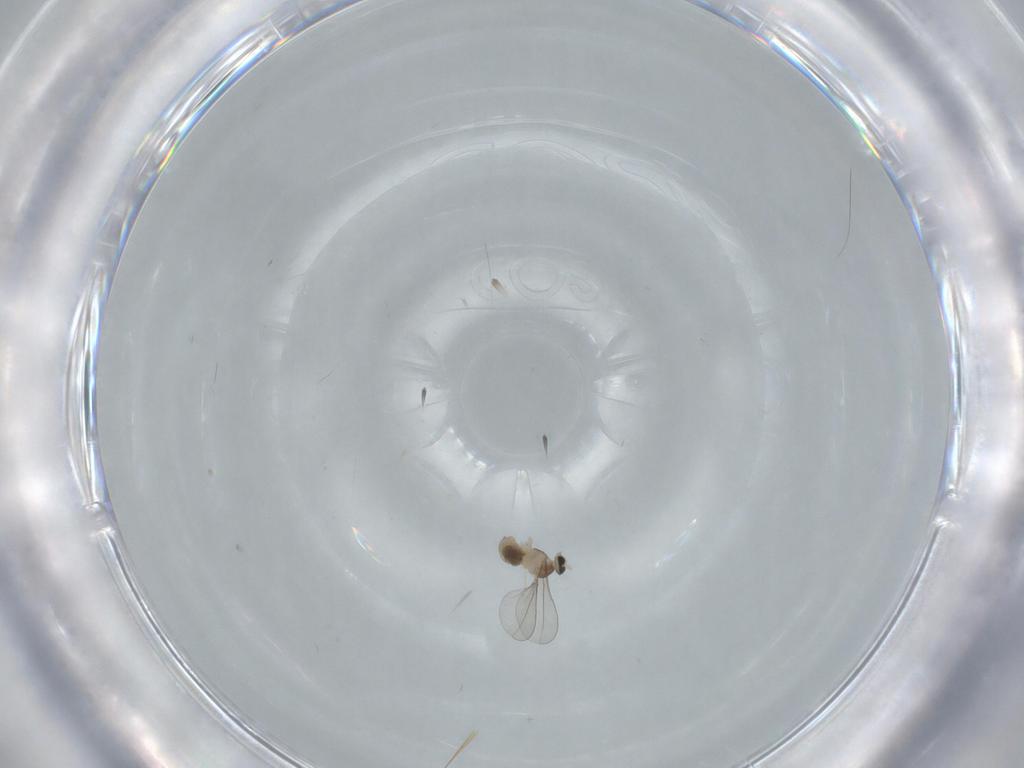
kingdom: Animalia
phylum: Arthropoda
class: Insecta
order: Diptera
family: Cecidomyiidae
